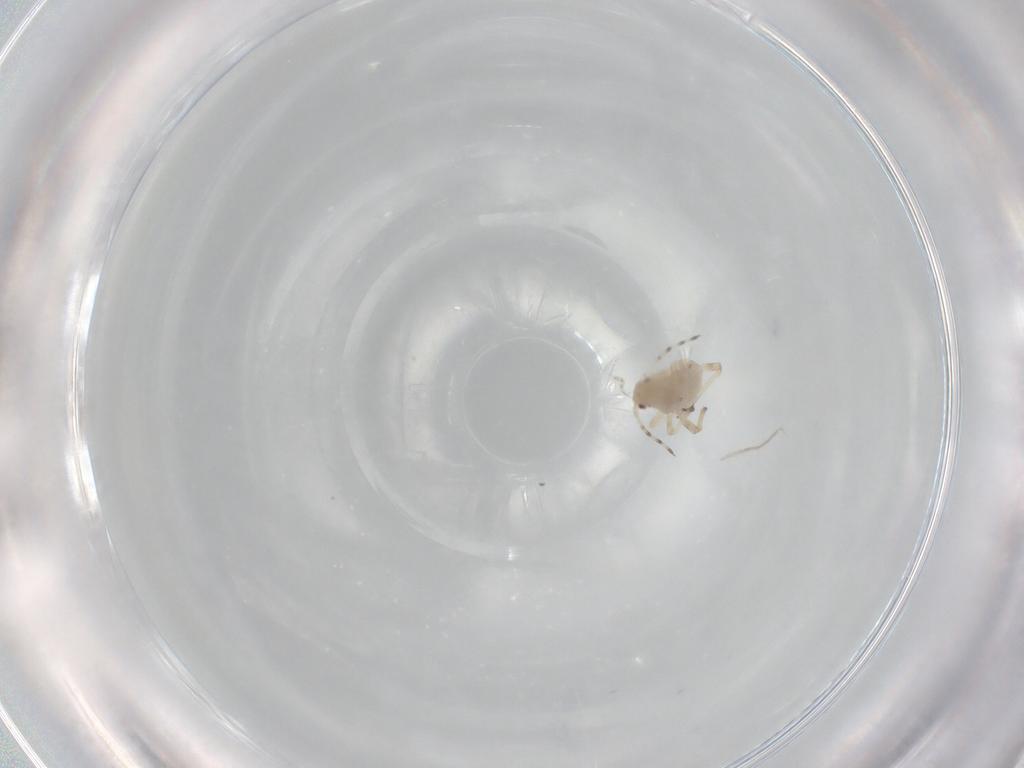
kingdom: Animalia
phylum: Arthropoda
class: Insecta
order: Hemiptera
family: Aphididae
